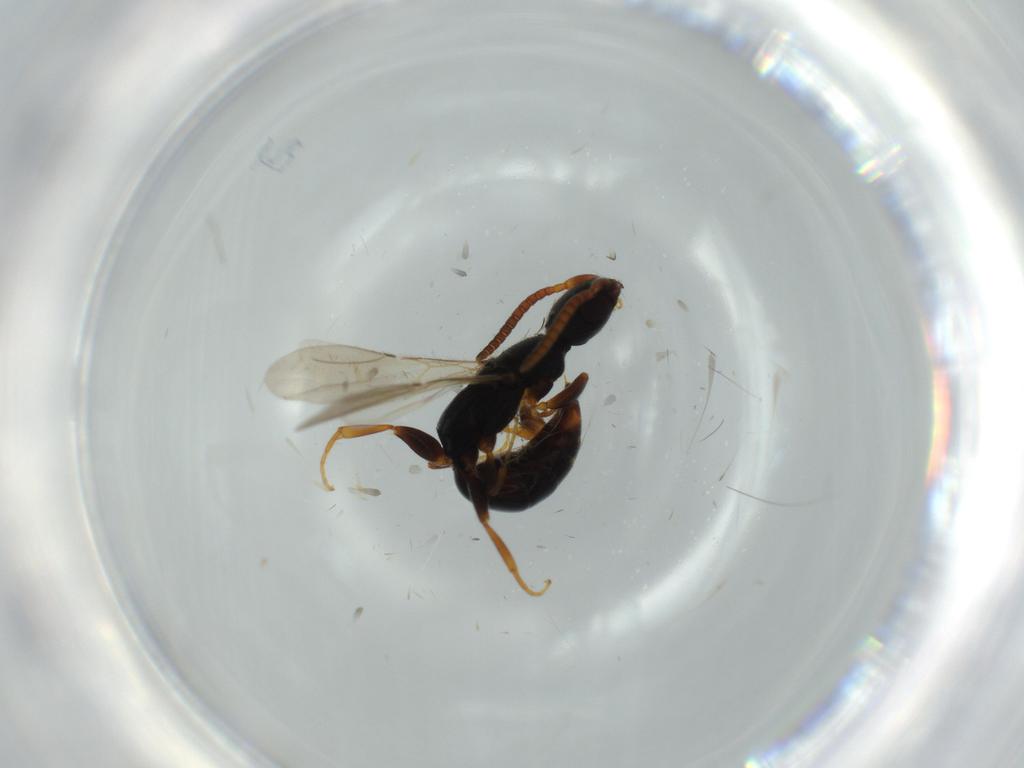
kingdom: Animalia
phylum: Arthropoda
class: Insecta
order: Hymenoptera
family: Bethylidae
